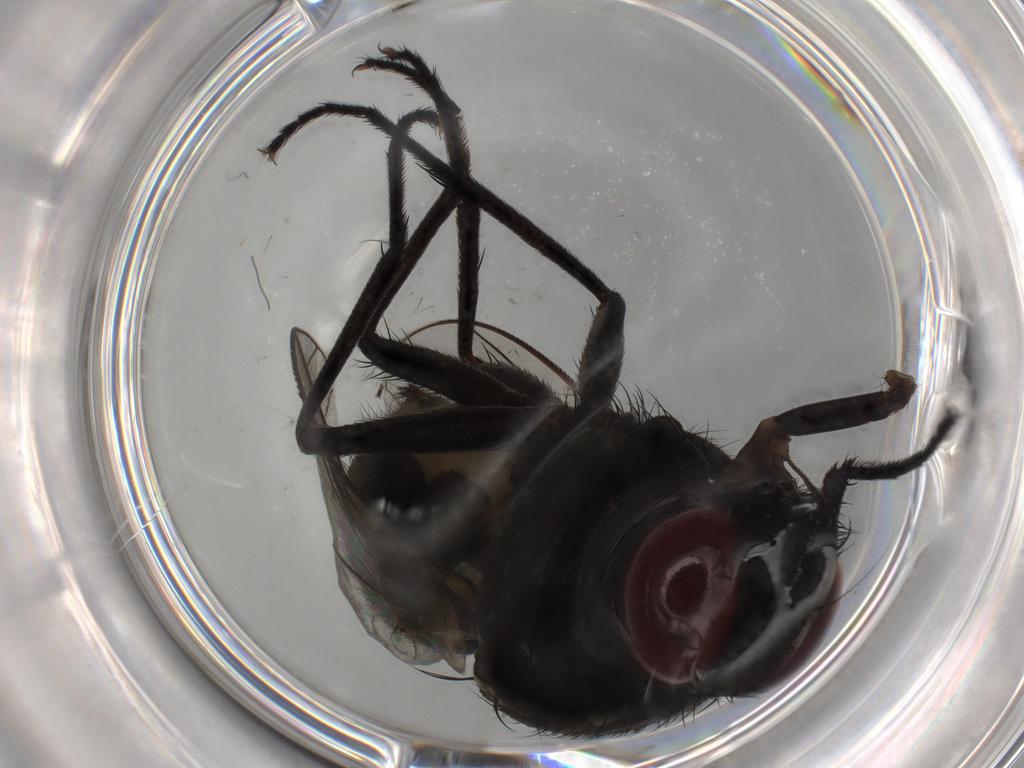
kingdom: Animalia
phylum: Arthropoda
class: Insecta
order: Diptera
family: Muscidae
